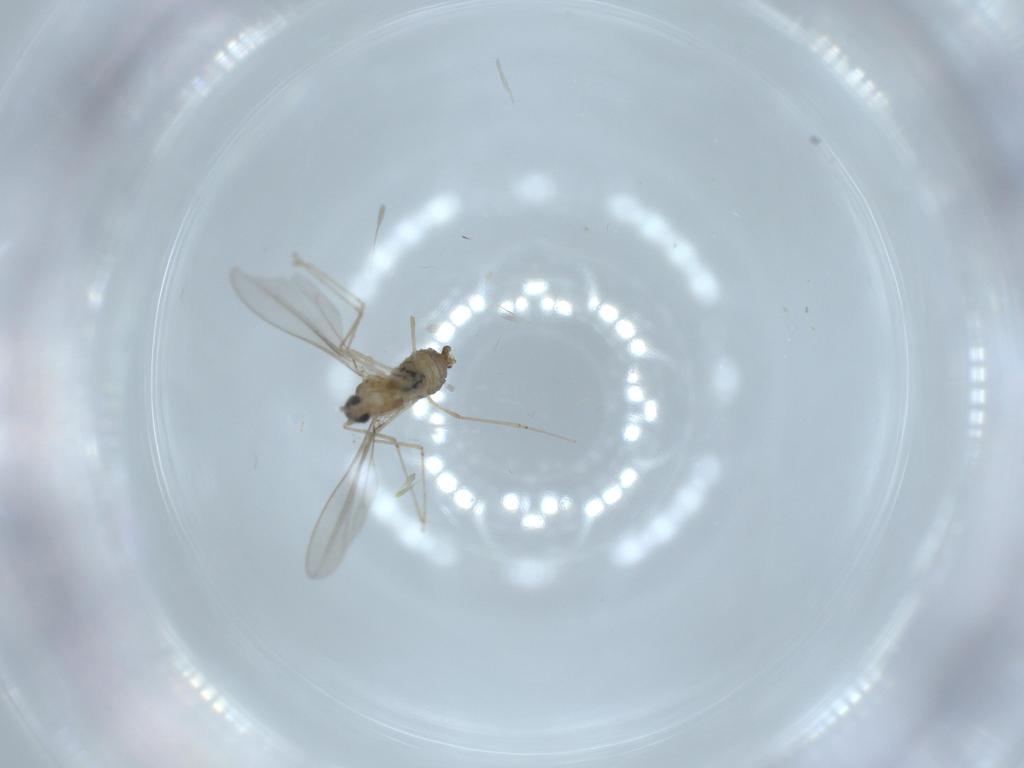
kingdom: Animalia
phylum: Arthropoda
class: Insecta
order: Diptera
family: Cecidomyiidae
